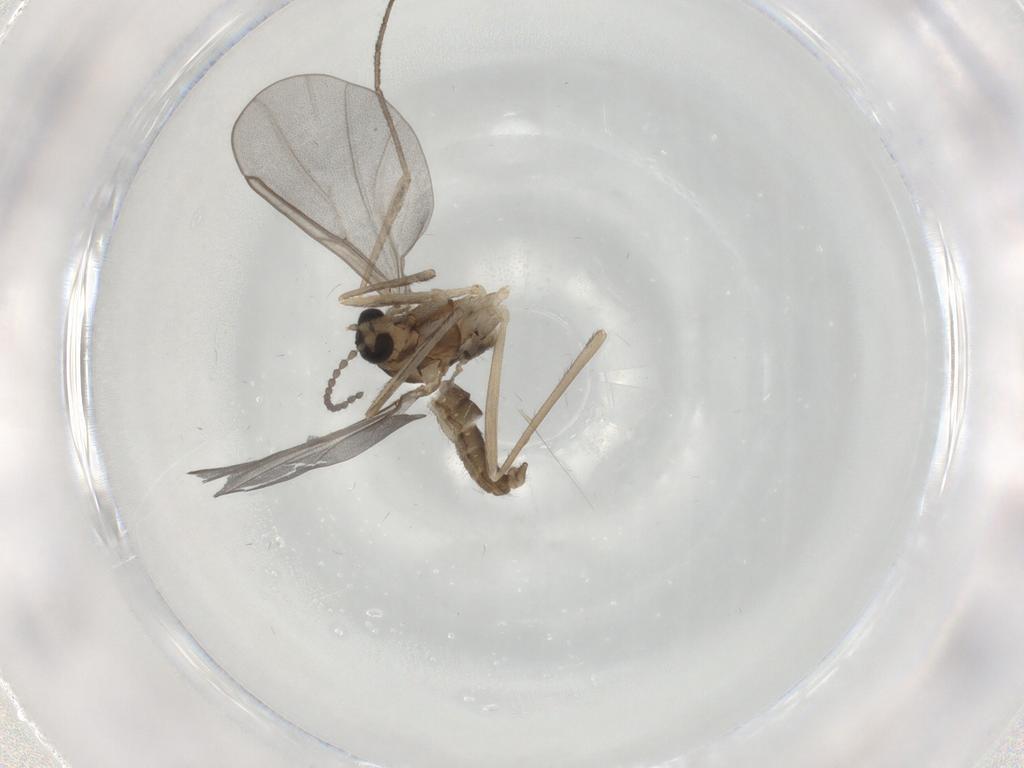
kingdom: Animalia
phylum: Arthropoda
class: Insecta
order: Diptera
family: Cecidomyiidae
